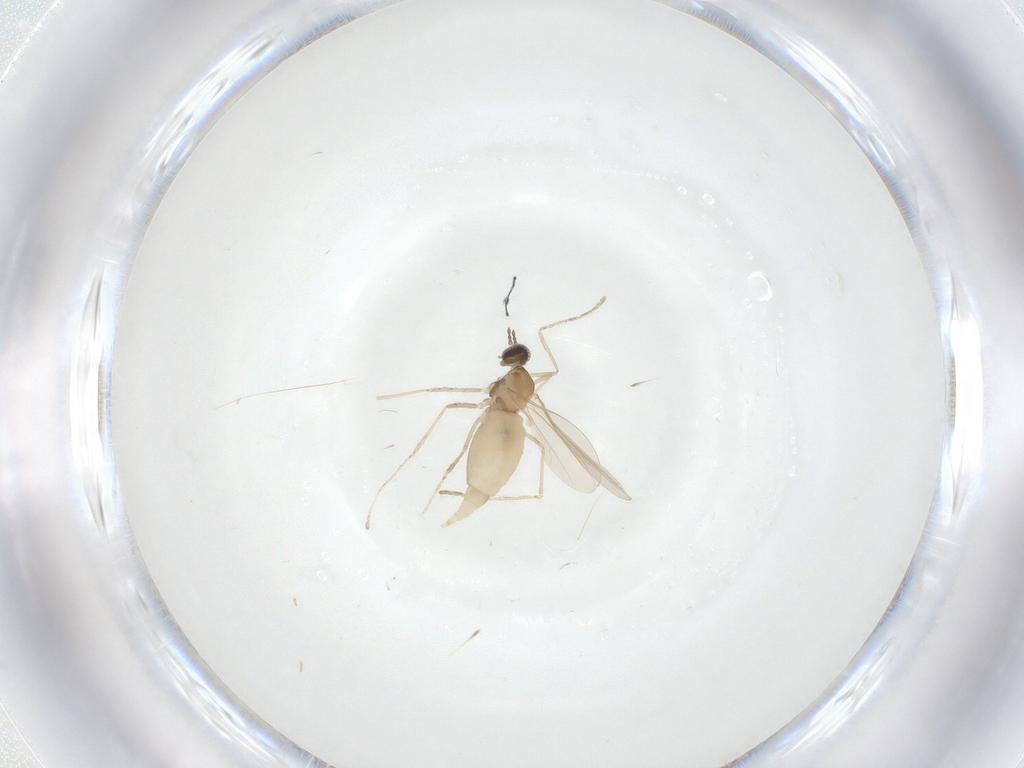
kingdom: Animalia
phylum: Arthropoda
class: Insecta
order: Diptera
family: Cecidomyiidae
